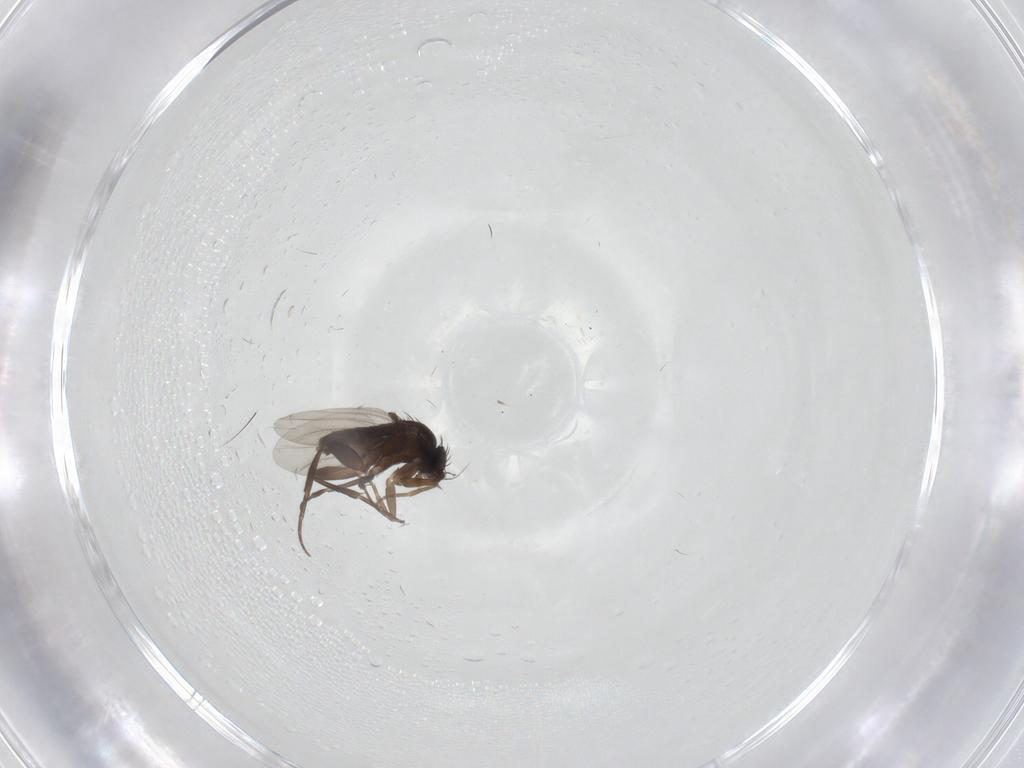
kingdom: Animalia
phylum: Arthropoda
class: Insecta
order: Diptera
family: Phoridae
